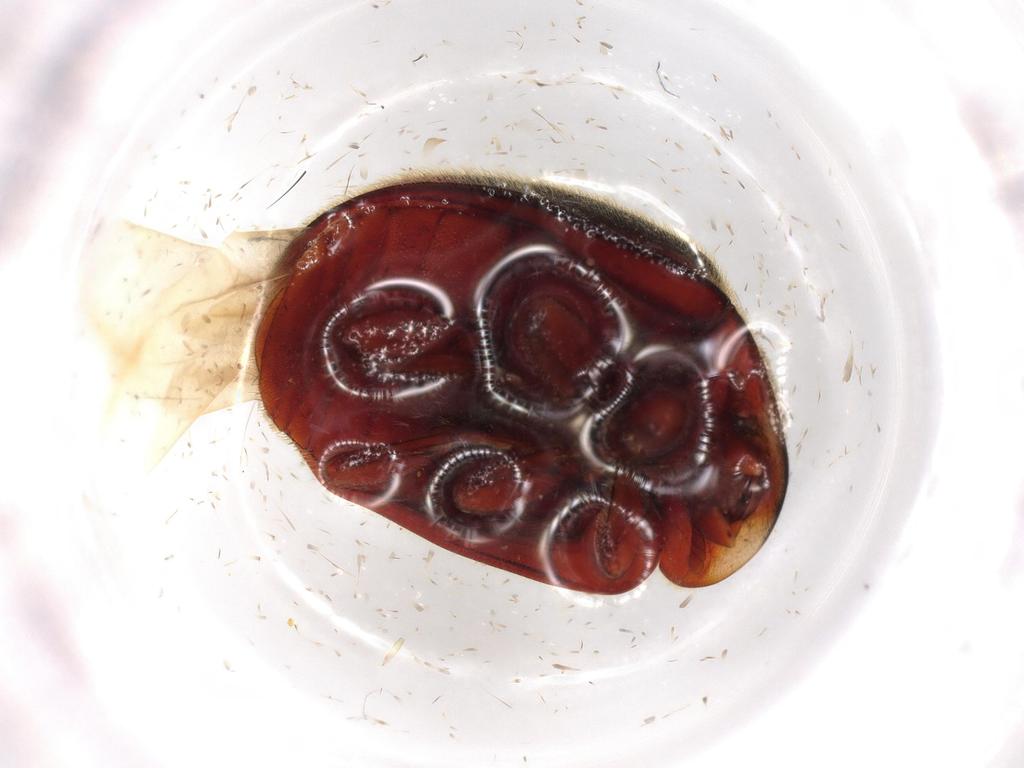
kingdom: Animalia
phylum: Arthropoda
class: Insecta
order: Coleoptera
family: Coccinellidae
